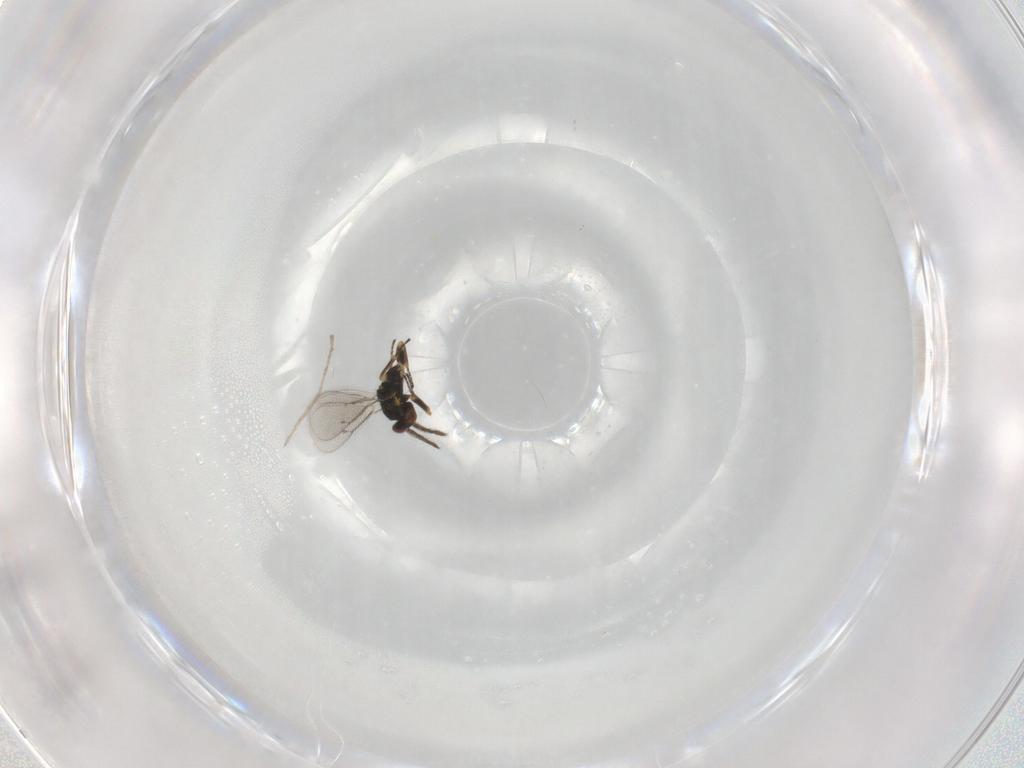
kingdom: Animalia
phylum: Arthropoda
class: Insecta
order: Hymenoptera
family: Eulophidae
